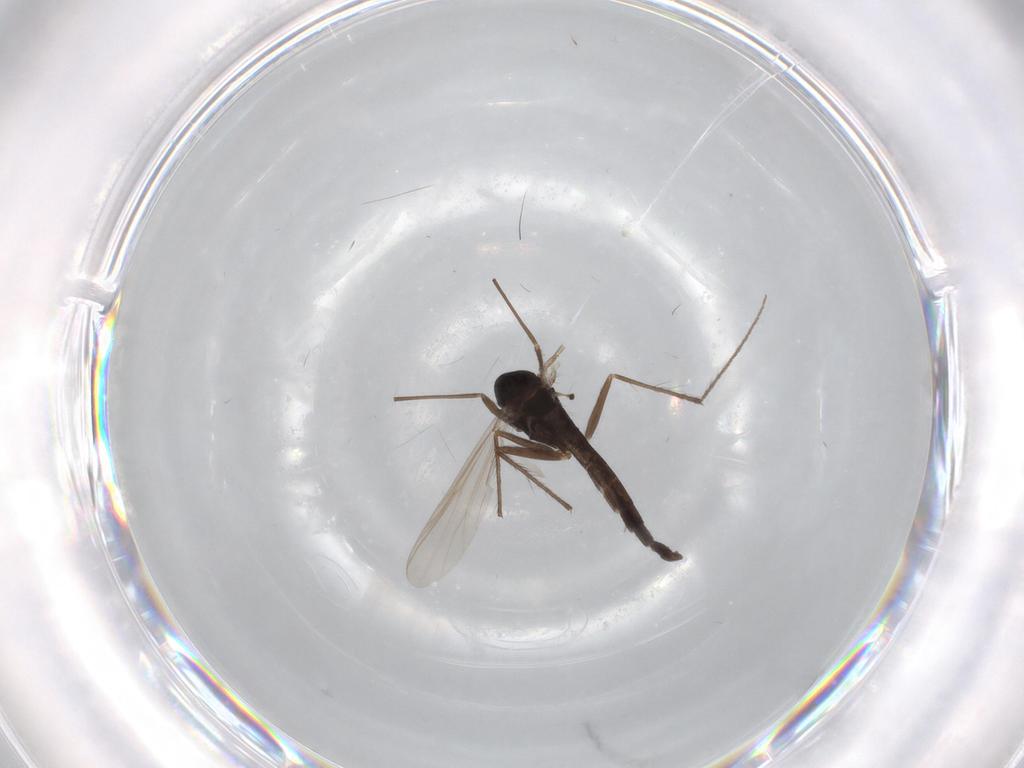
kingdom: Animalia
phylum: Arthropoda
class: Insecta
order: Diptera
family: Chironomidae
